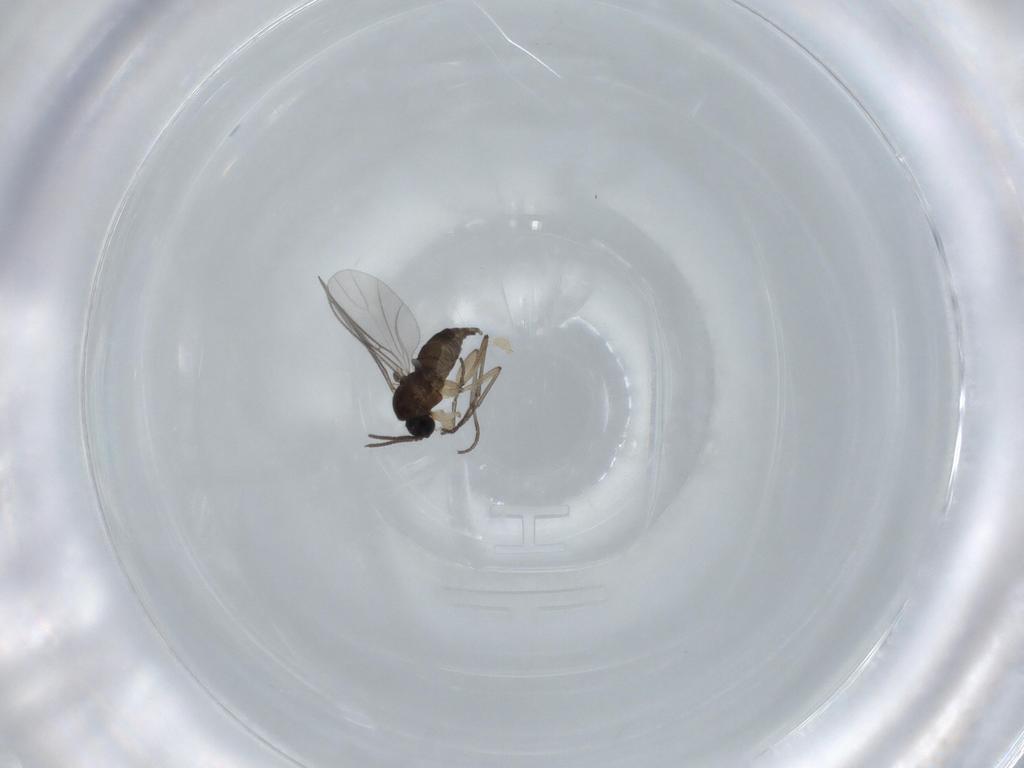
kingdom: Animalia
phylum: Arthropoda
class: Insecta
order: Diptera
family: Sciaridae
